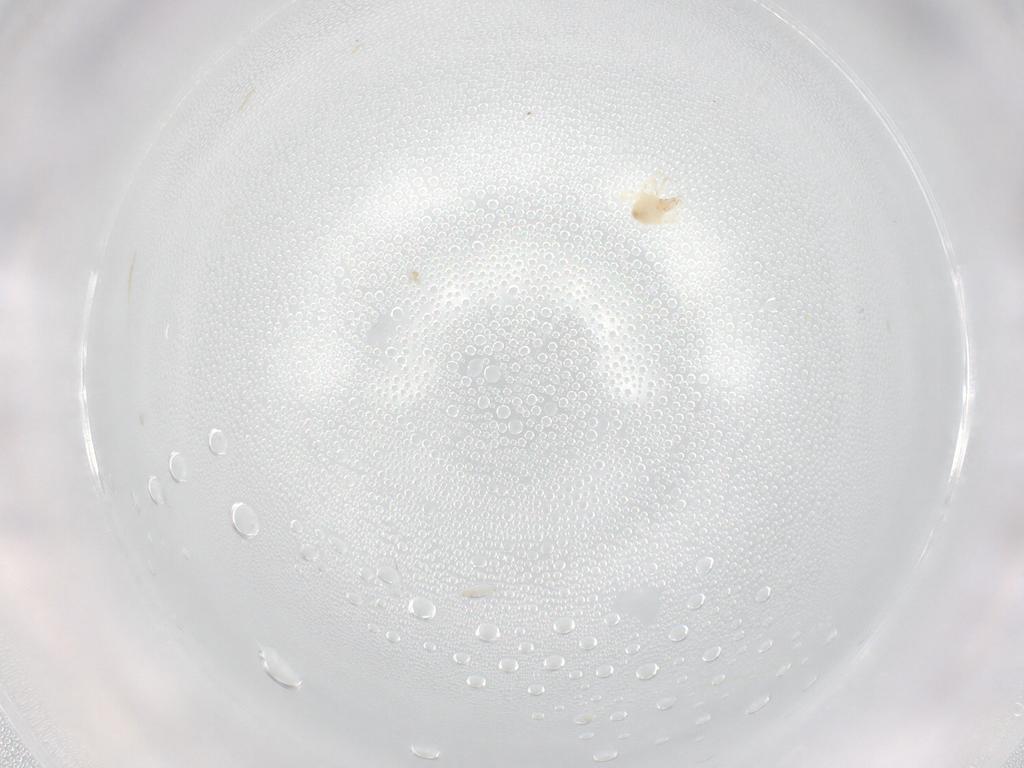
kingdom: Animalia
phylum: Arthropoda
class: Arachnida
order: Trombidiformes
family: Cunaxidae
